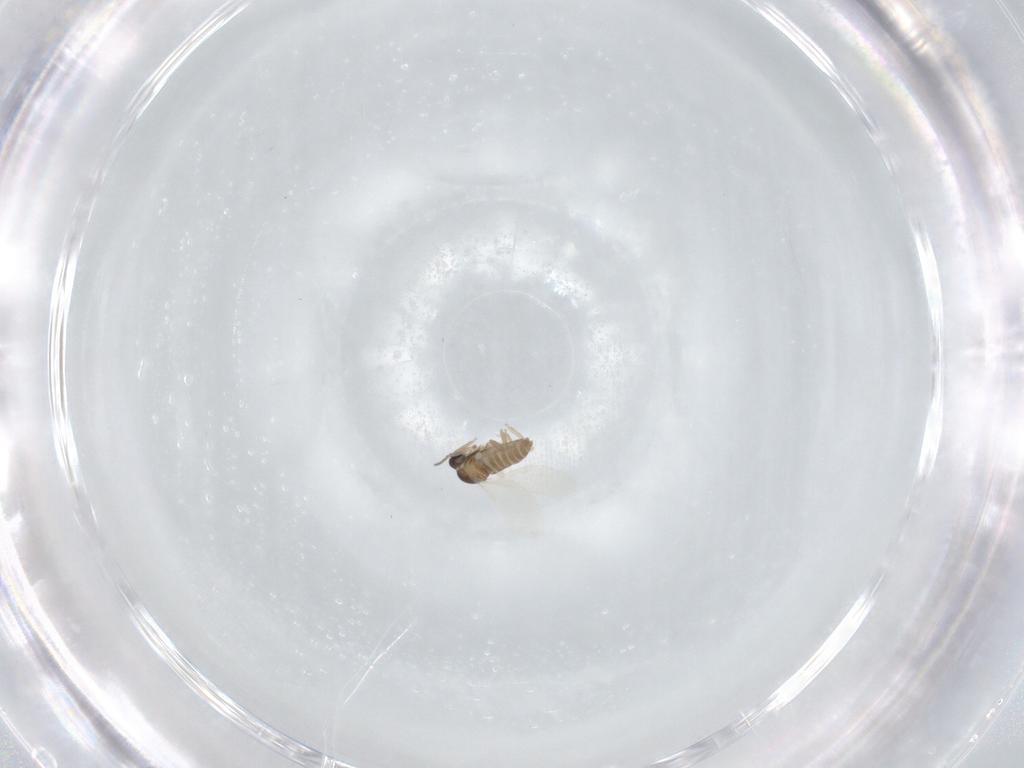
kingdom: Animalia
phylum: Arthropoda
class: Insecta
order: Diptera
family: Cecidomyiidae
